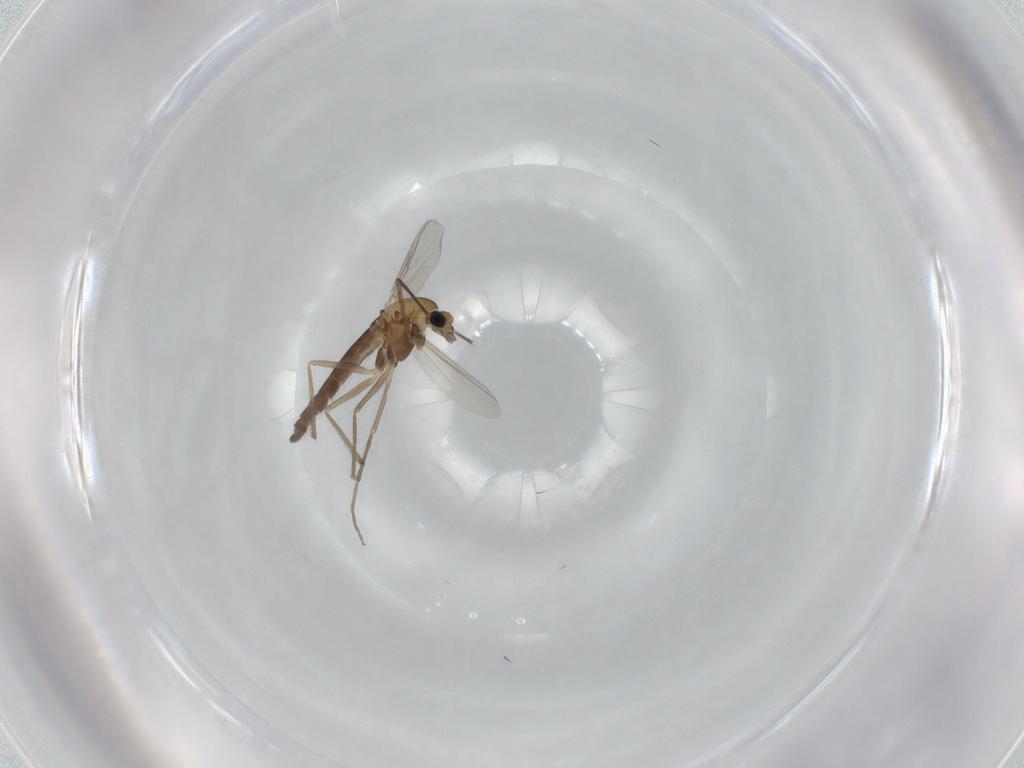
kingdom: Animalia
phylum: Arthropoda
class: Insecta
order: Diptera
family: Chironomidae
